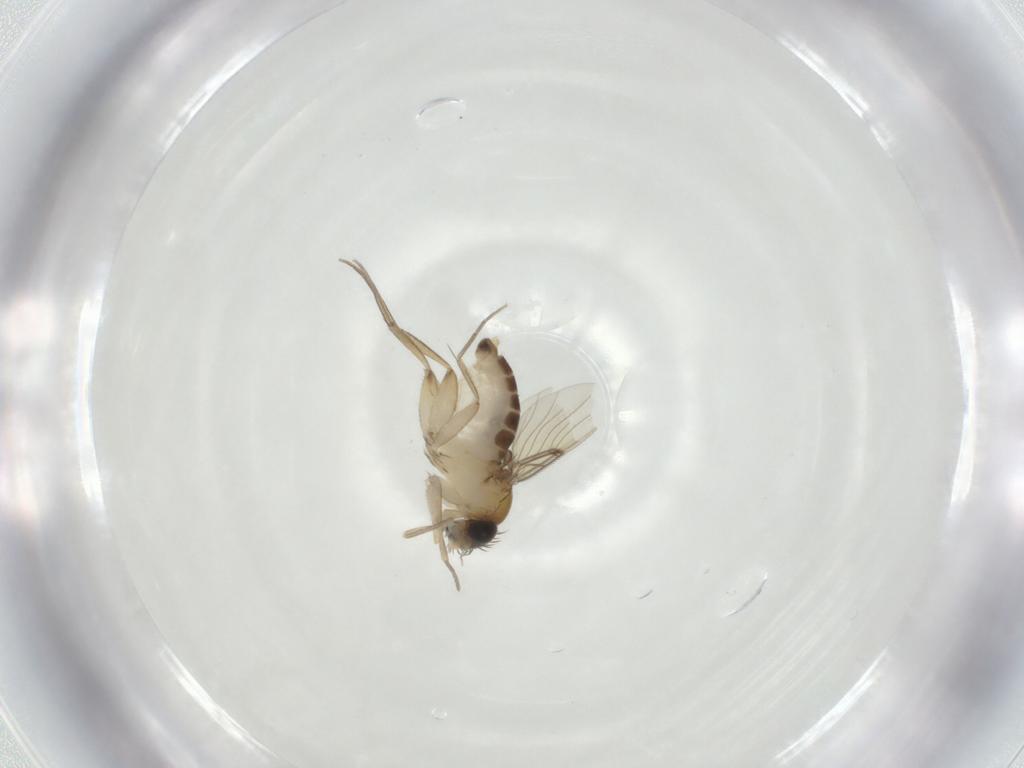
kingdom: Animalia
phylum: Arthropoda
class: Insecta
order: Diptera
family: Phoridae
